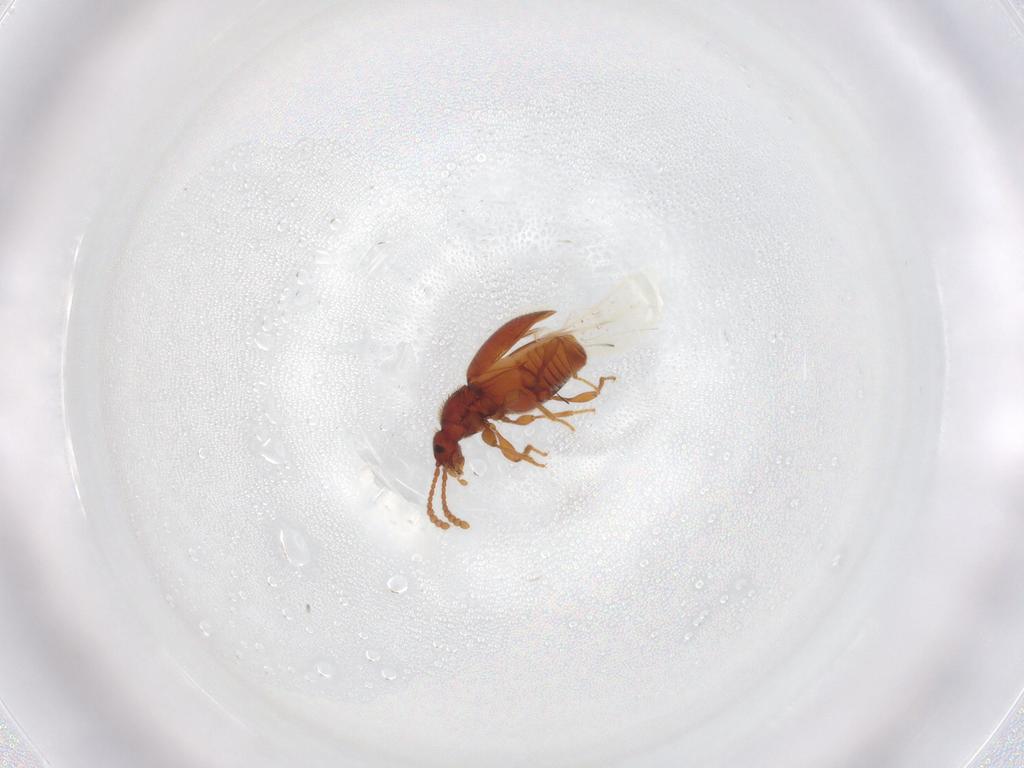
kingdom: Animalia
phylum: Arthropoda
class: Insecta
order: Coleoptera
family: Staphylinidae
